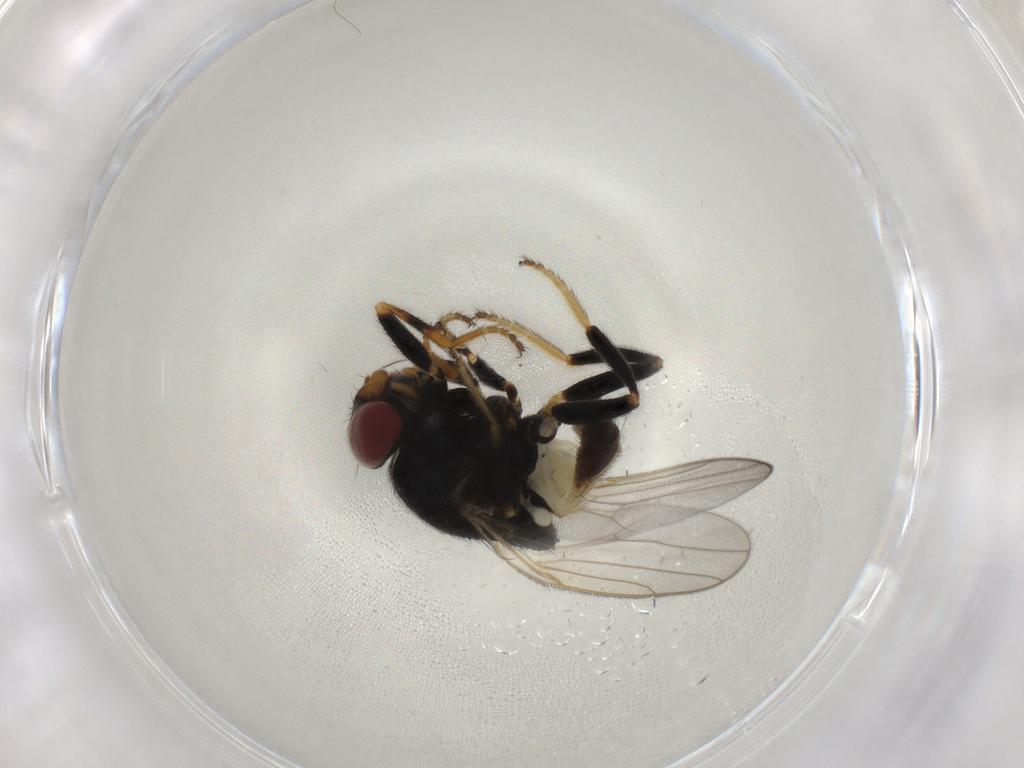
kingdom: Animalia
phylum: Arthropoda
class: Insecta
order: Diptera
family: Chloropidae
